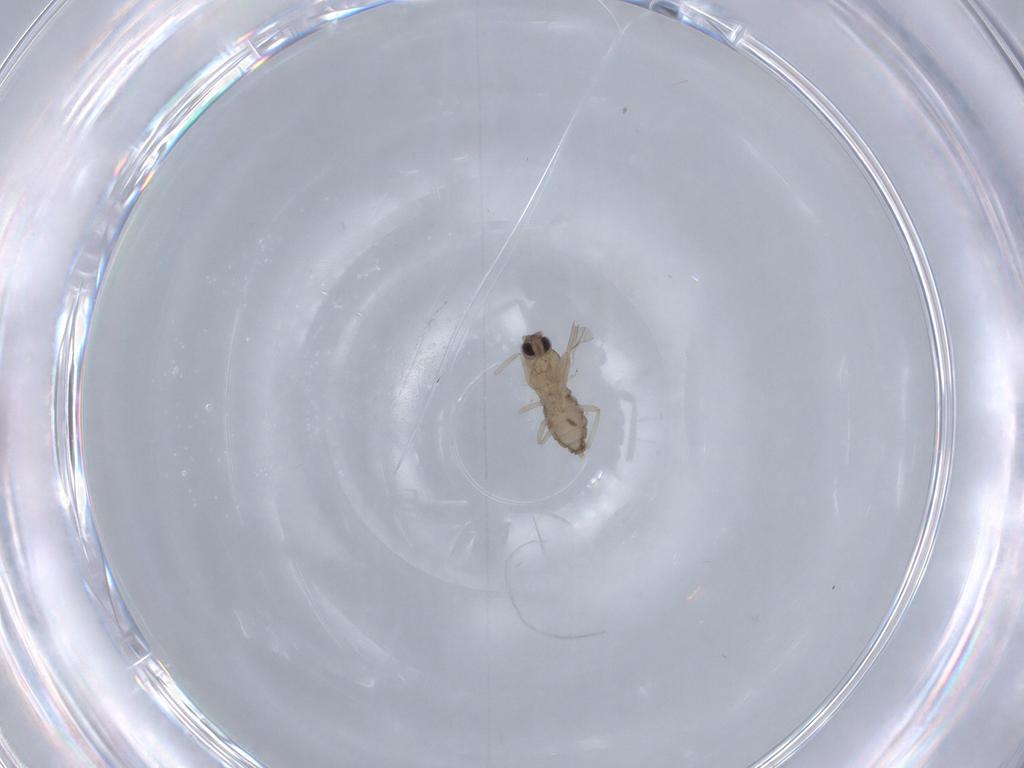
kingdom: Animalia
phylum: Arthropoda
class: Insecta
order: Diptera
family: Cecidomyiidae
